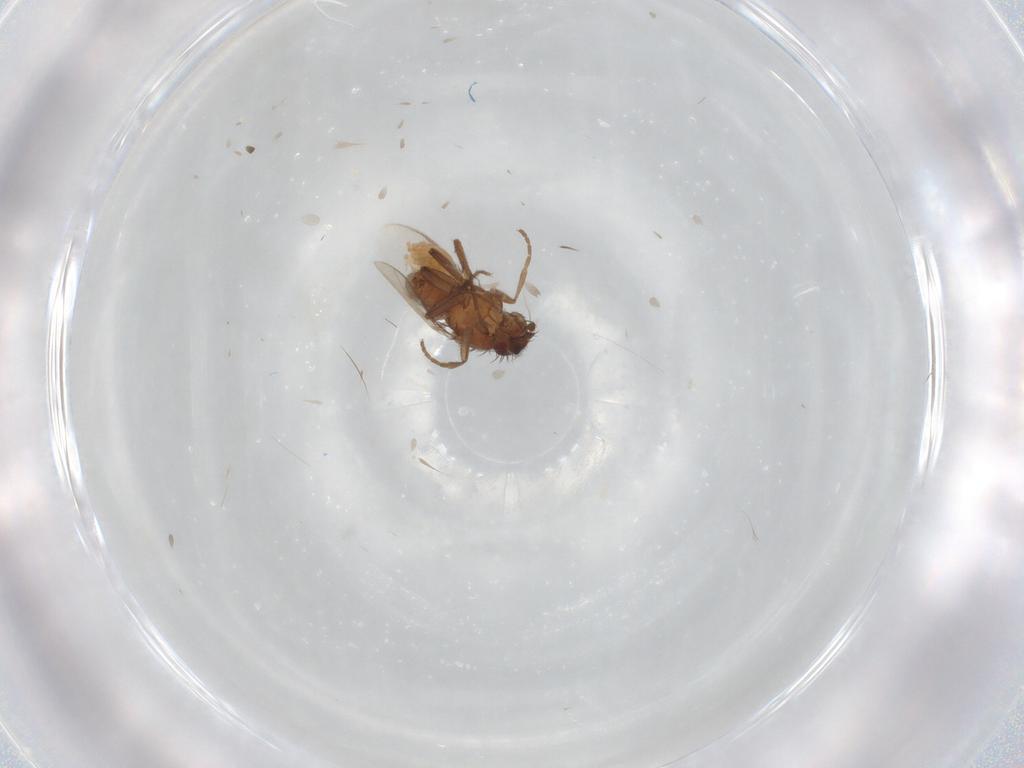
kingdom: Animalia
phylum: Arthropoda
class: Insecta
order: Diptera
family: Sphaeroceridae
